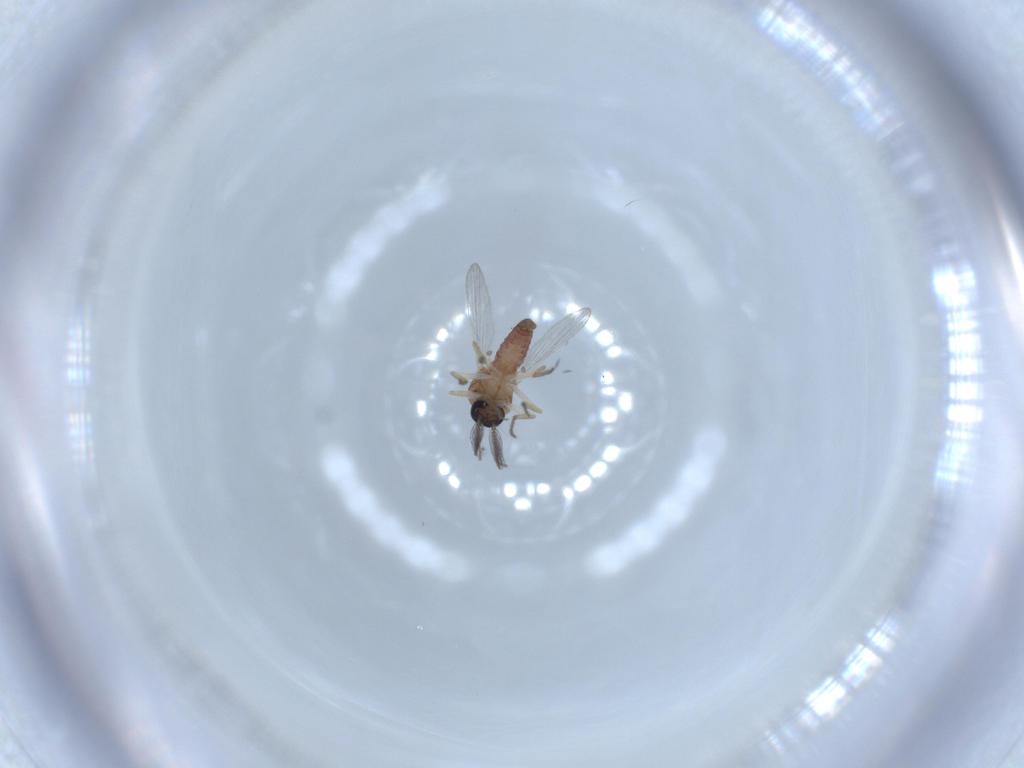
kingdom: Animalia
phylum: Arthropoda
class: Insecta
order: Diptera
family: Ceratopogonidae
